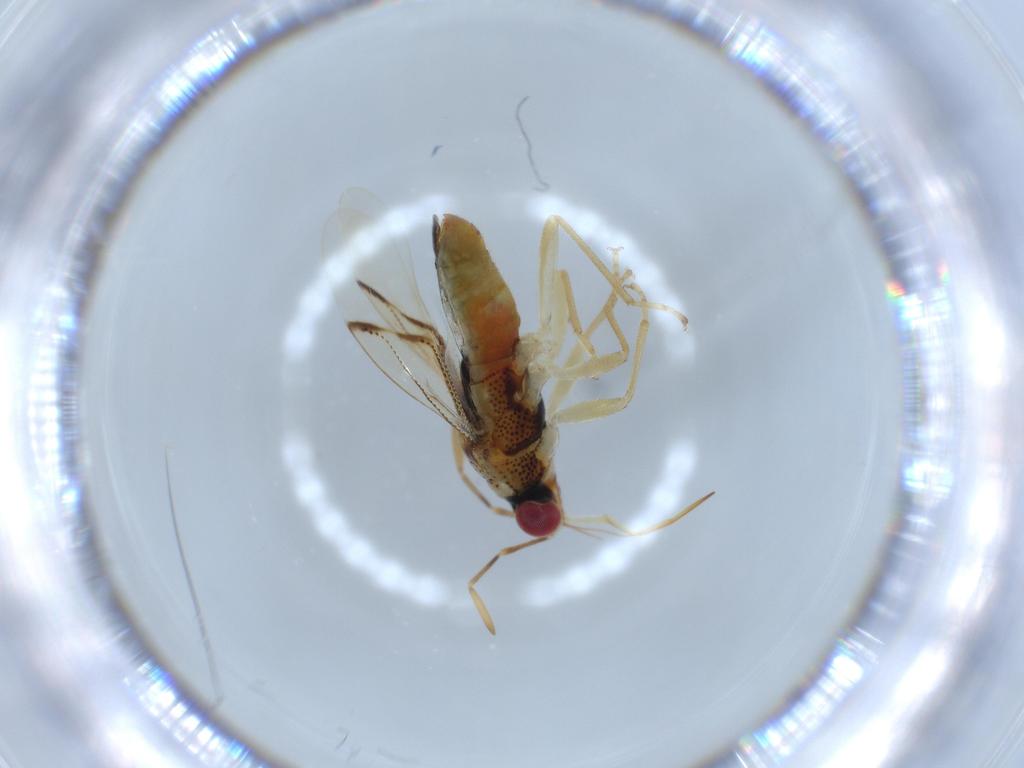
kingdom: Animalia
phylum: Arthropoda
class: Insecta
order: Hemiptera
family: Geocoridae
